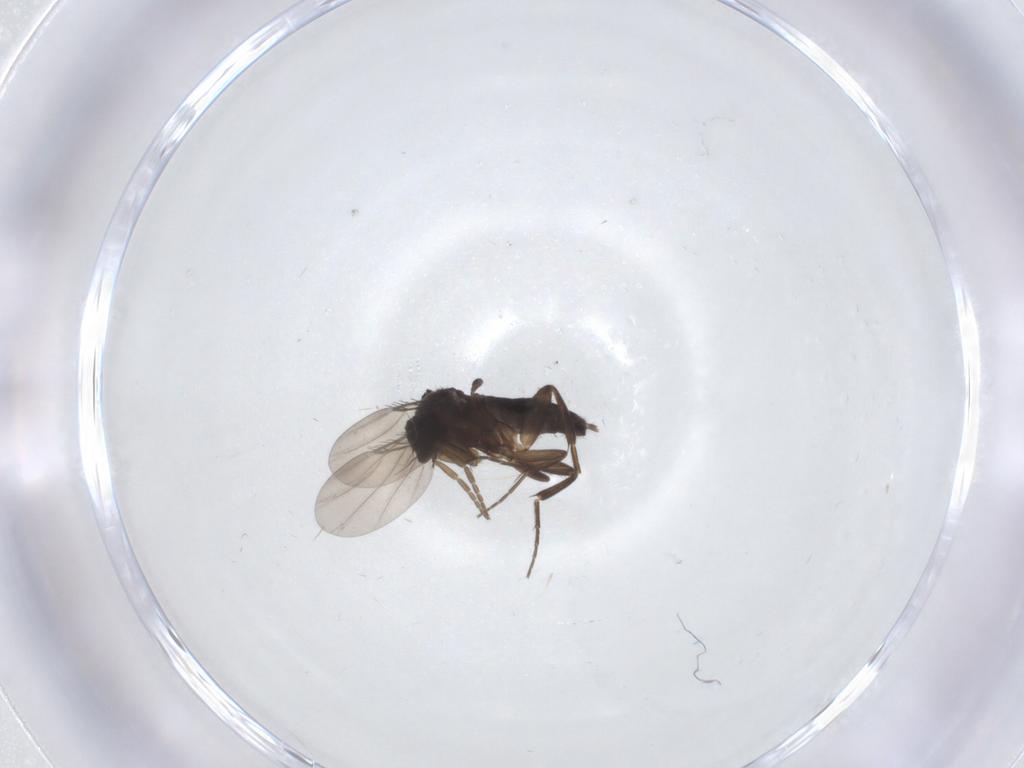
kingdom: Animalia
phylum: Arthropoda
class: Insecta
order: Diptera
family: Phoridae
